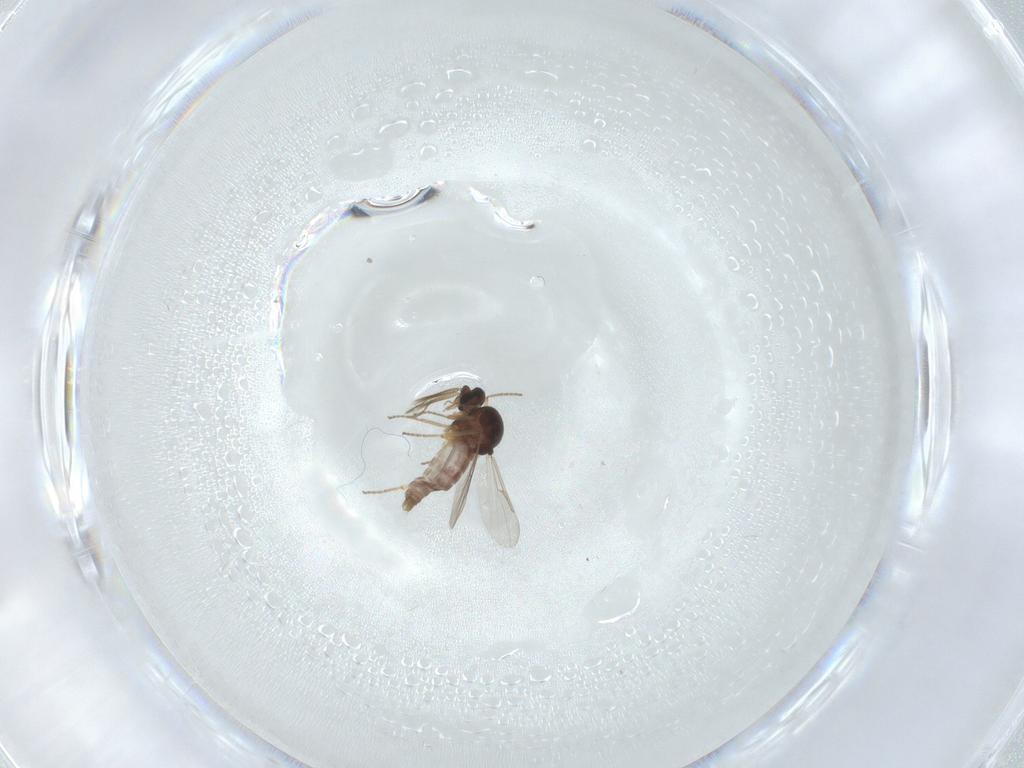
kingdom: Animalia
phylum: Arthropoda
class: Insecta
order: Diptera
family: Ceratopogonidae
